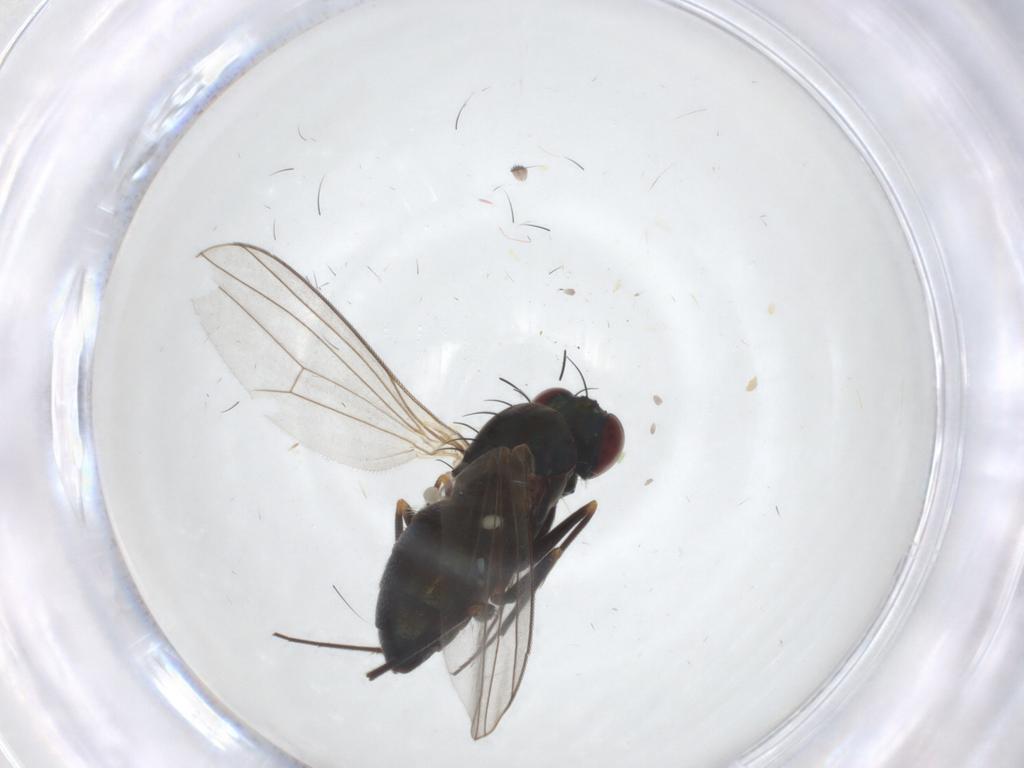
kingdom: Animalia
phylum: Arthropoda
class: Insecta
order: Diptera
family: Dolichopodidae
